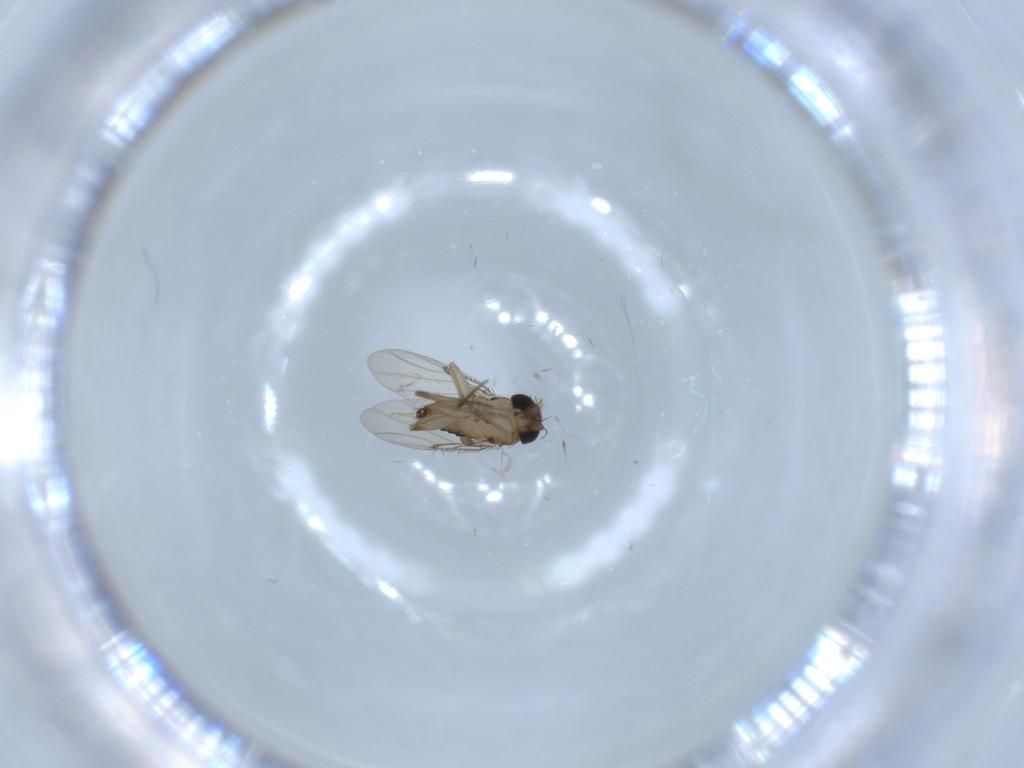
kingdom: Animalia
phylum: Arthropoda
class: Insecta
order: Diptera
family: Phoridae
